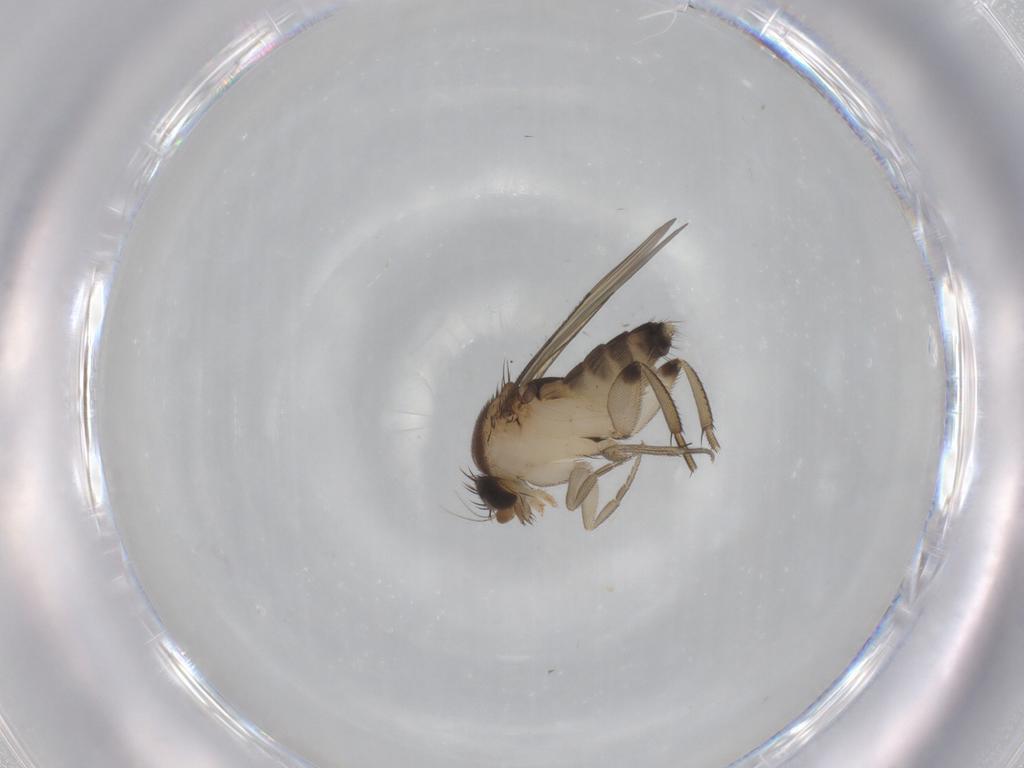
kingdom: Animalia
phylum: Arthropoda
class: Insecta
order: Diptera
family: Phoridae
